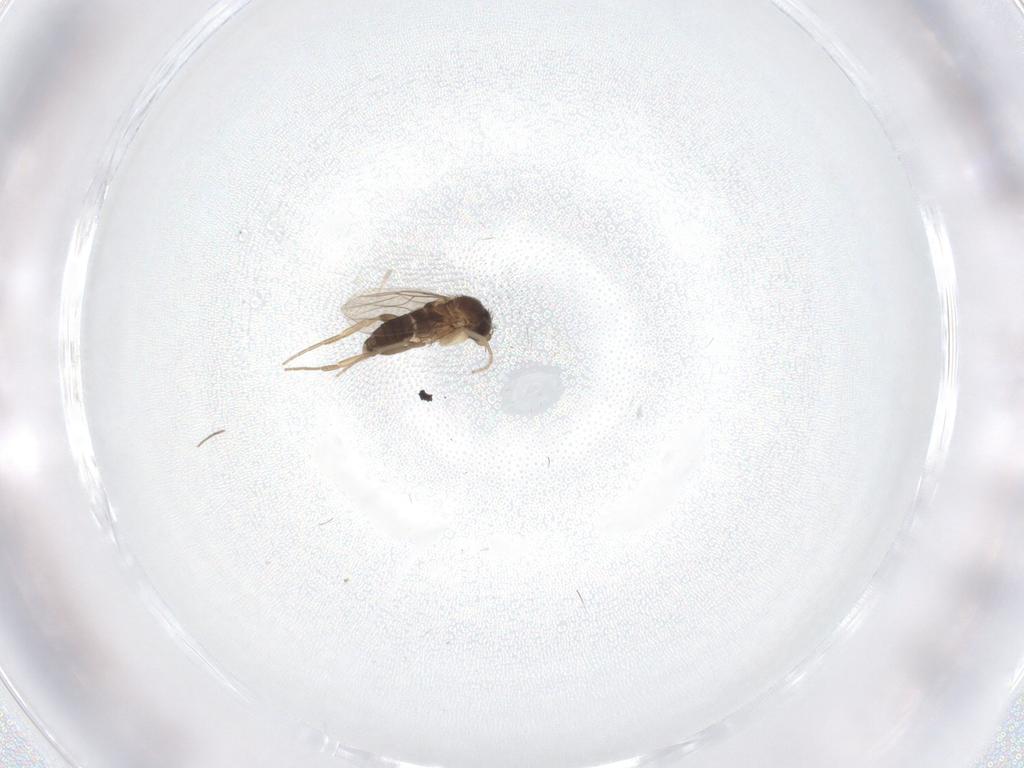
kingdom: Animalia
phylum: Arthropoda
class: Insecta
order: Diptera
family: Phoridae
